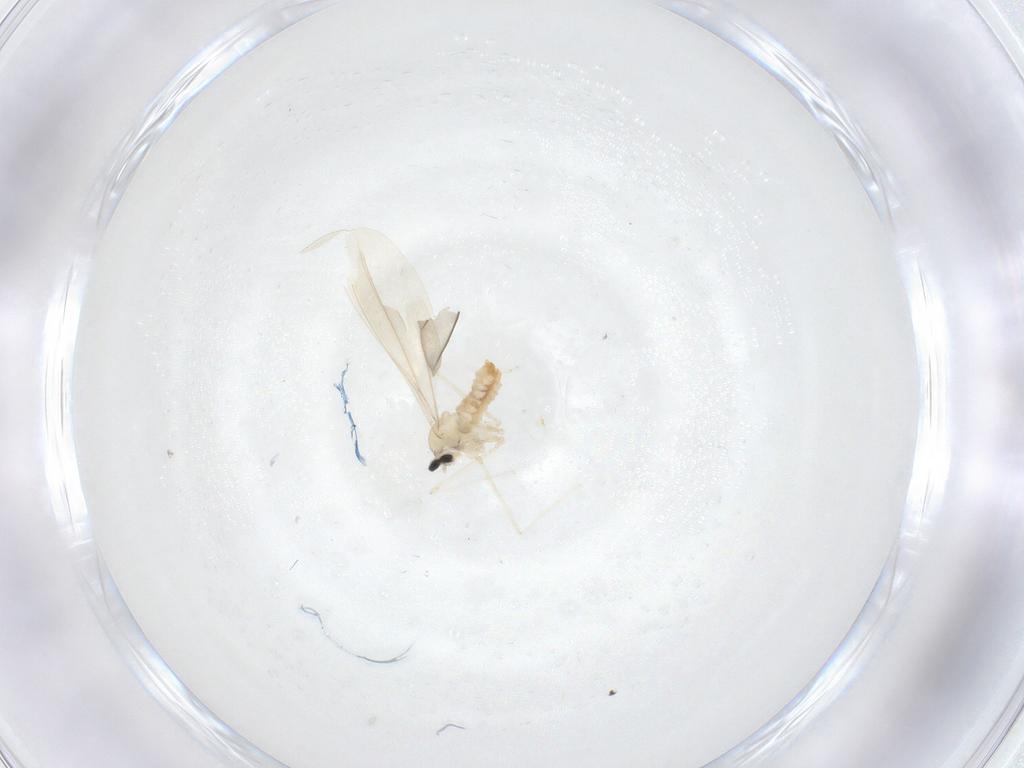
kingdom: Animalia
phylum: Arthropoda
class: Insecta
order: Diptera
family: Cecidomyiidae
